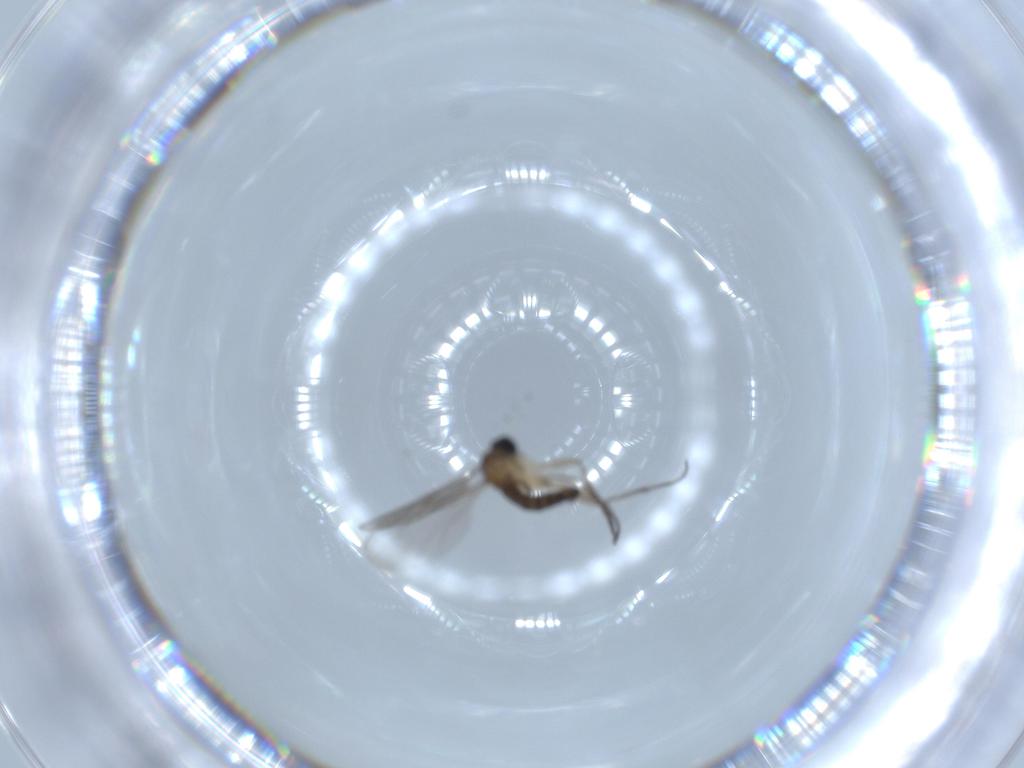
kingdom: Animalia
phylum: Arthropoda
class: Insecta
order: Diptera
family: Sciaridae
